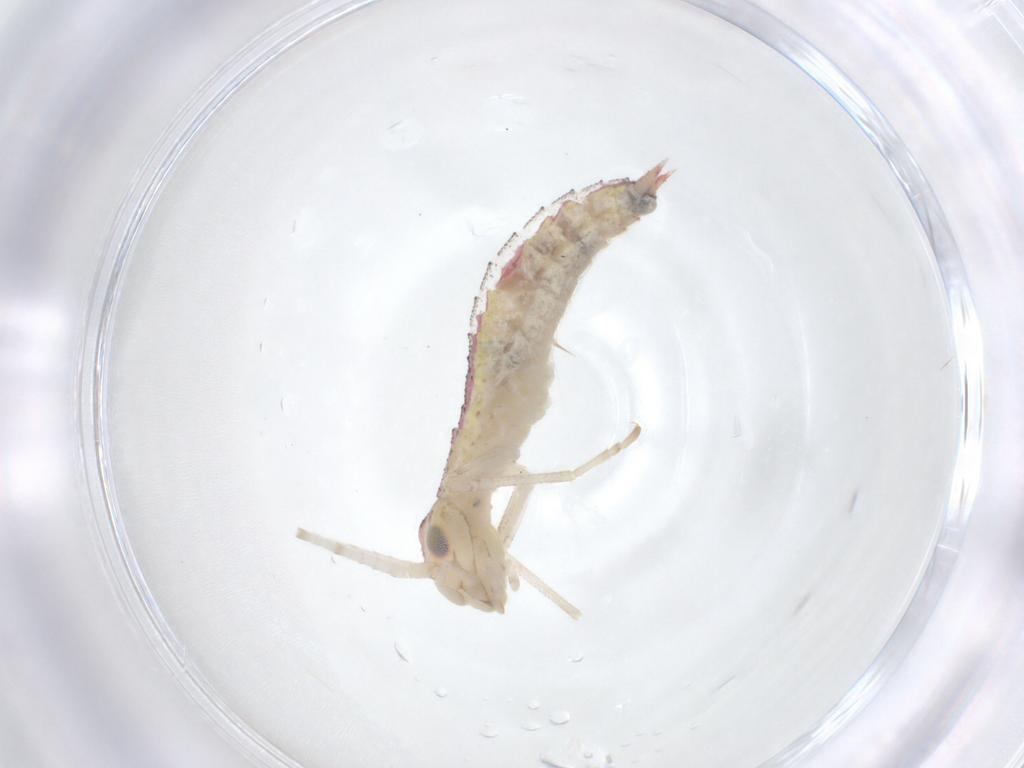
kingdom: Animalia
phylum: Arthropoda
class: Insecta
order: Orthoptera
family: Oecanthidae
